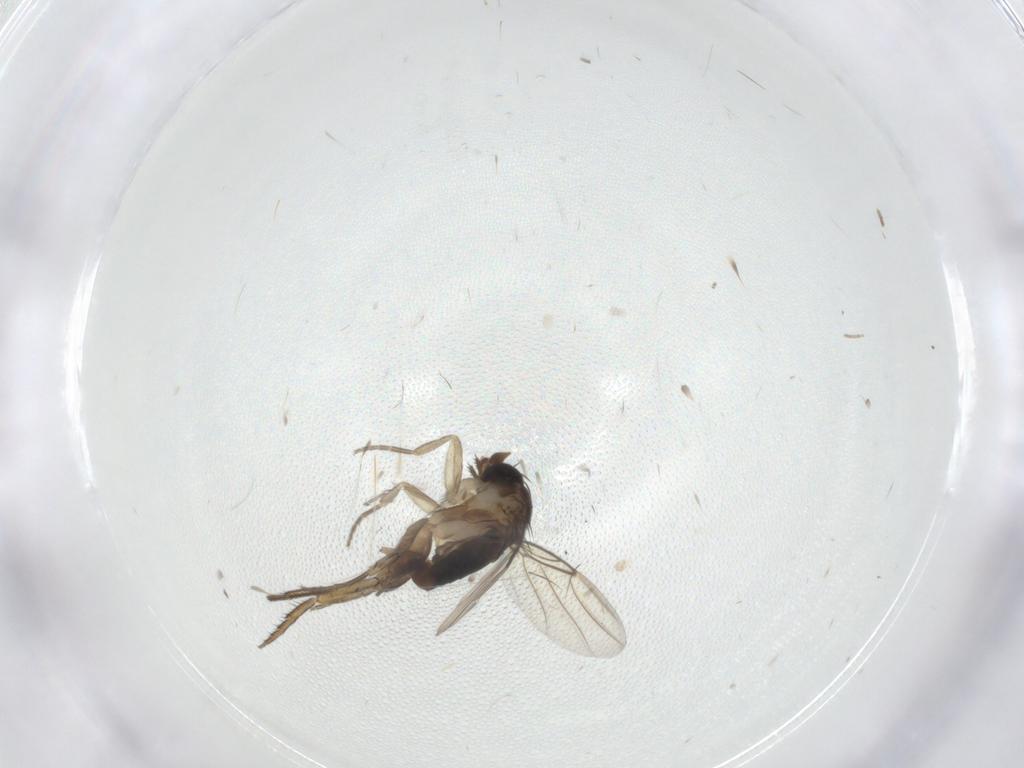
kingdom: Animalia
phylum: Arthropoda
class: Insecta
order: Diptera
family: Phoridae
